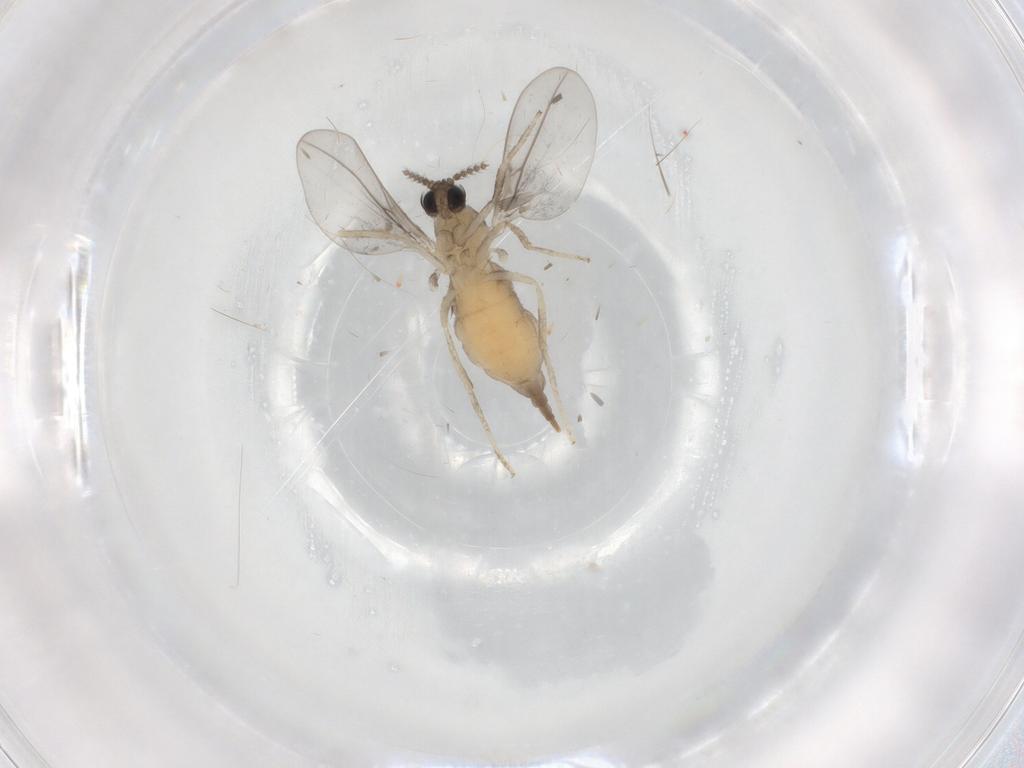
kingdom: Animalia
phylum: Arthropoda
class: Insecta
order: Diptera
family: Cecidomyiidae
